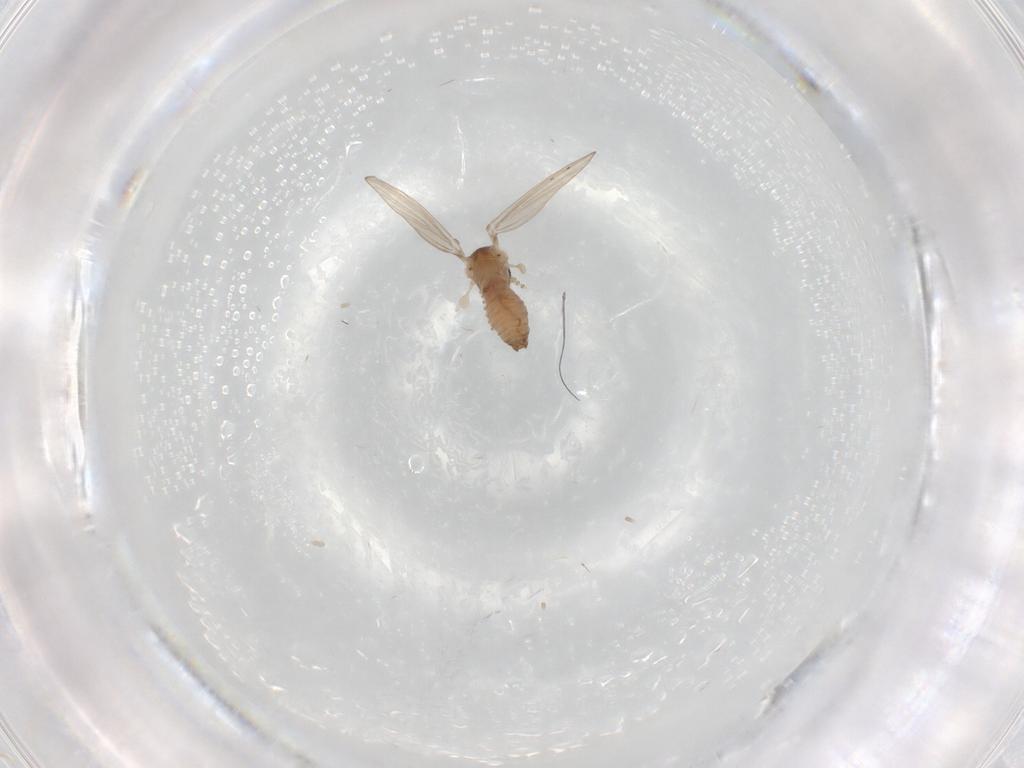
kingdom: Animalia
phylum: Arthropoda
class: Insecta
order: Diptera
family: Psychodidae
